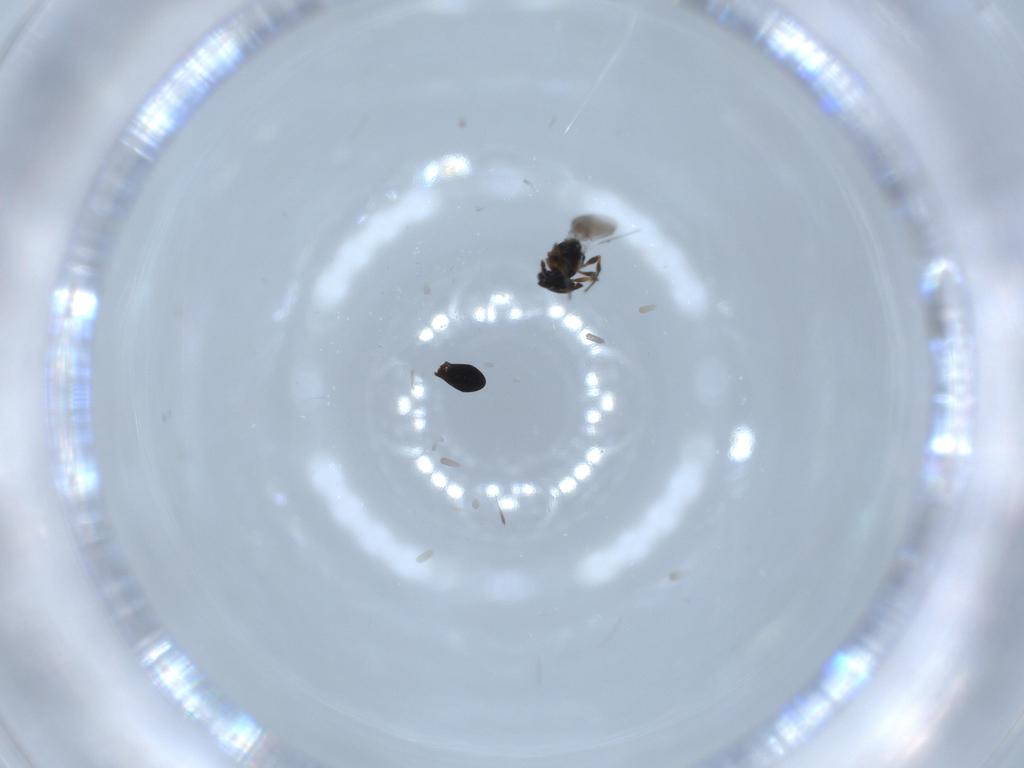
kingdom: Animalia
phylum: Arthropoda
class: Insecta
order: Hymenoptera
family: Platygastridae
